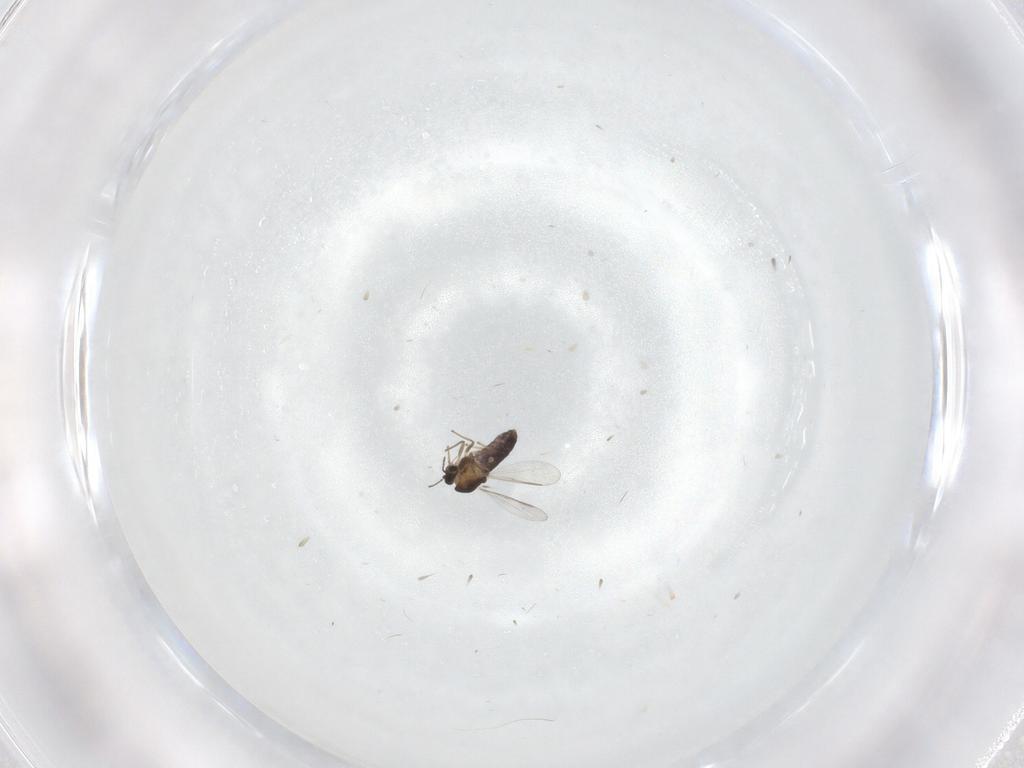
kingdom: Animalia
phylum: Arthropoda
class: Insecta
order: Diptera
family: Chironomidae
